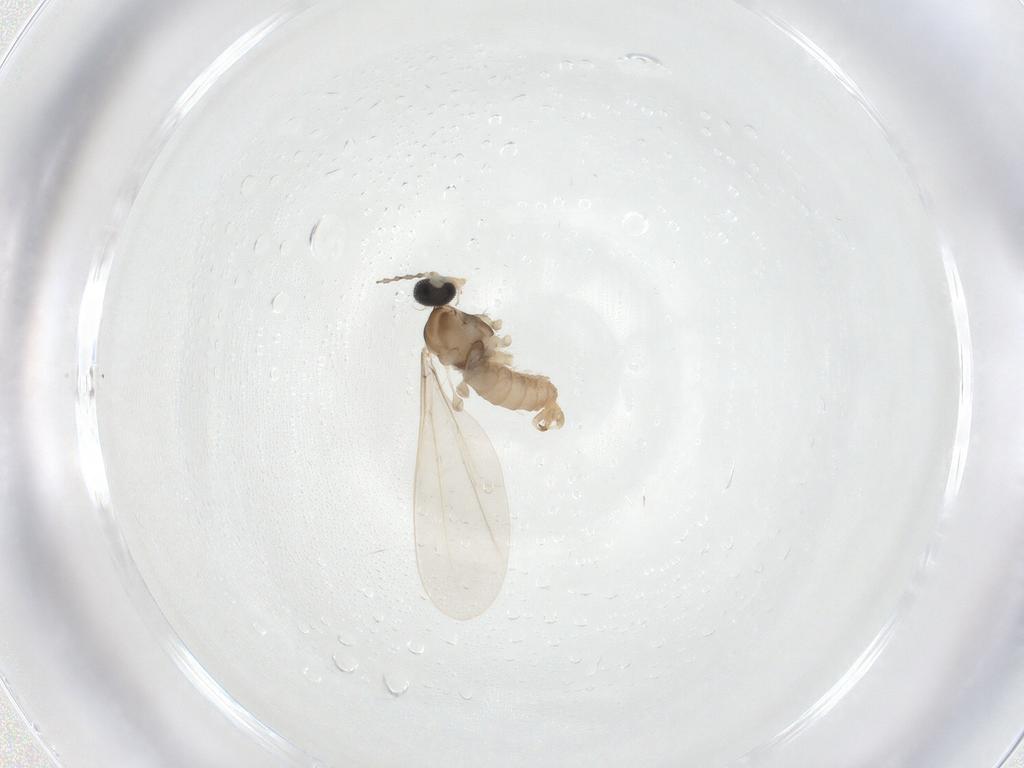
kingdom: Animalia
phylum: Arthropoda
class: Insecta
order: Diptera
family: Cecidomyiidae
